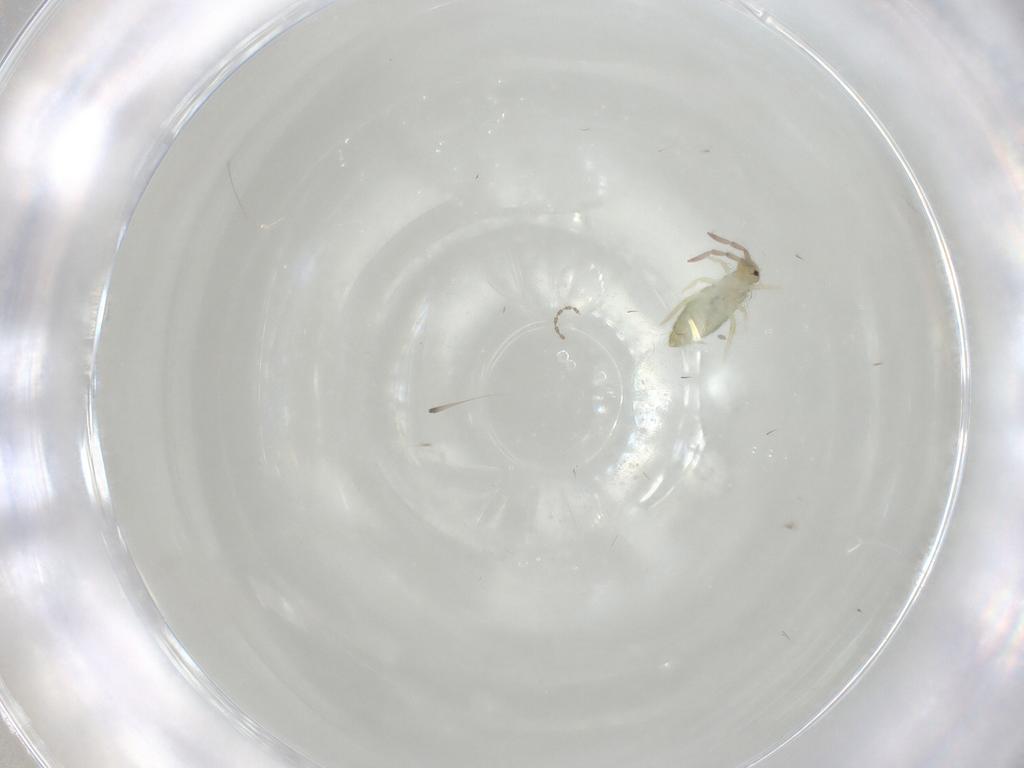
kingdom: Animalia
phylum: Arthropoda
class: Collembola
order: Entomobryomorpha
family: Entomobryidae
